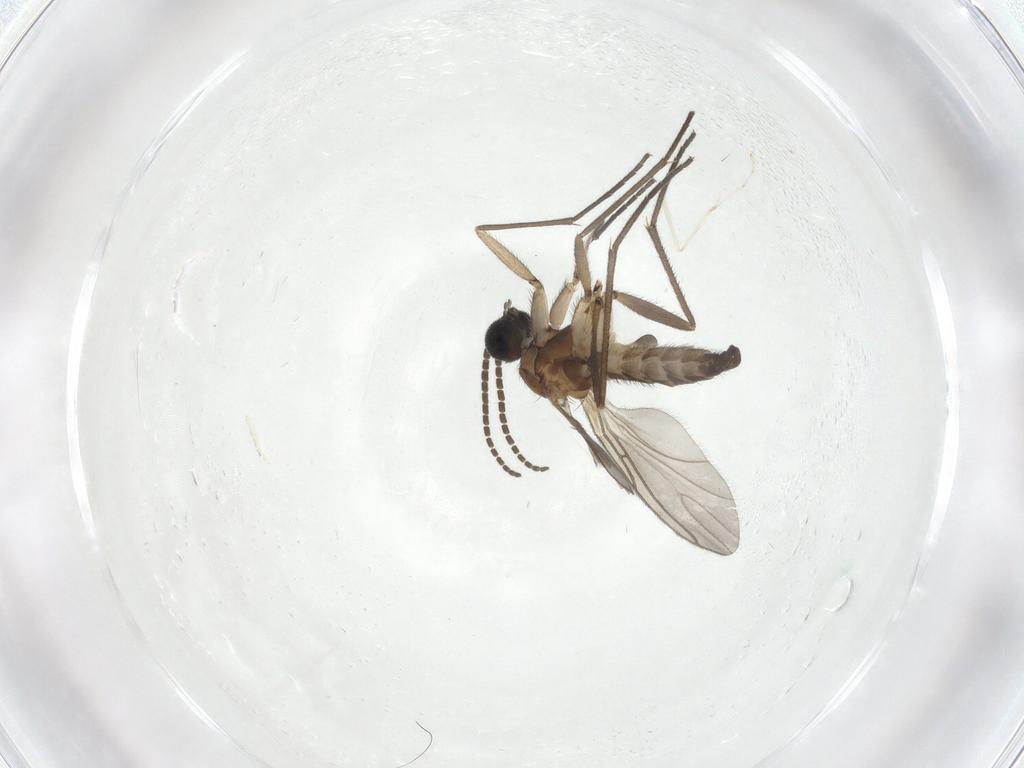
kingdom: Animalia
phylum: Arthropoda
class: Insecta
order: Diptera
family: Sciaridae
